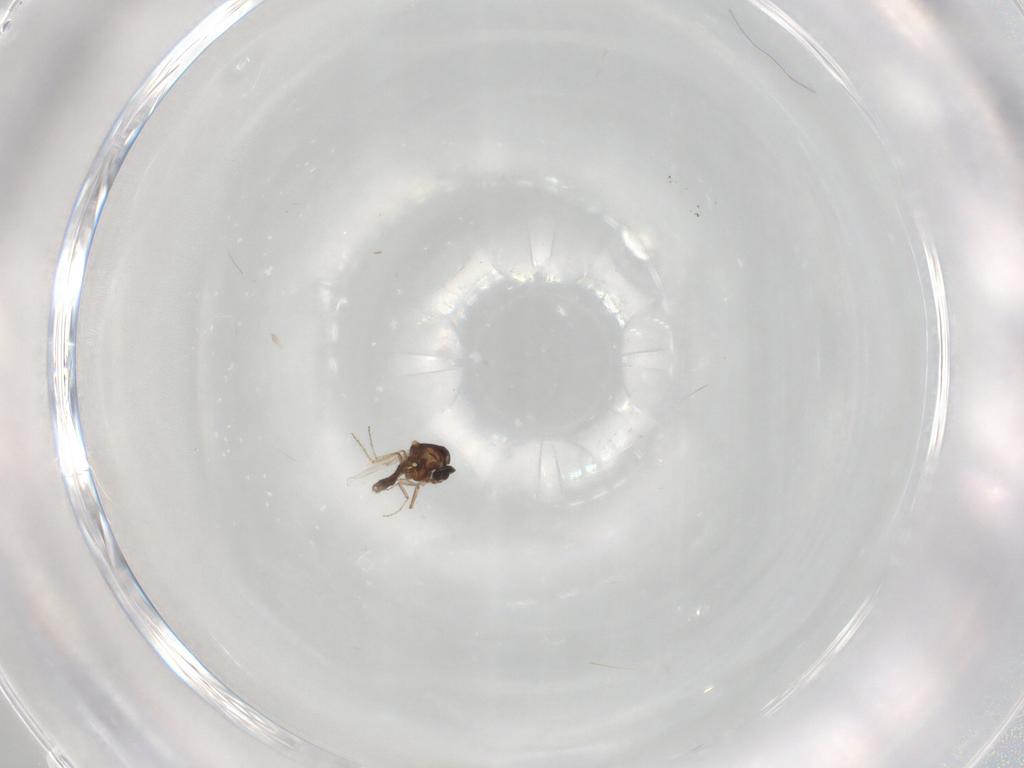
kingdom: Animalia
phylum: Arthropoda
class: Insecta
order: Diptera
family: Ceratopogonidae
